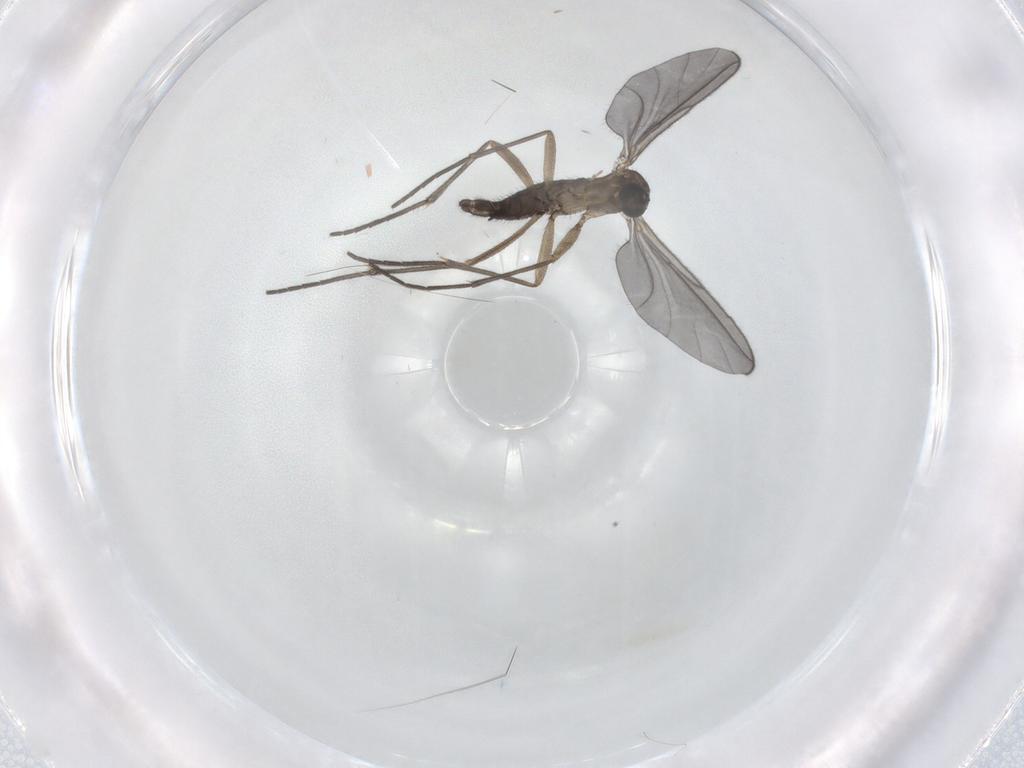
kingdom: Animalia
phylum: Arthropoda
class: Insecta
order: Diptera
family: Sciaridae
